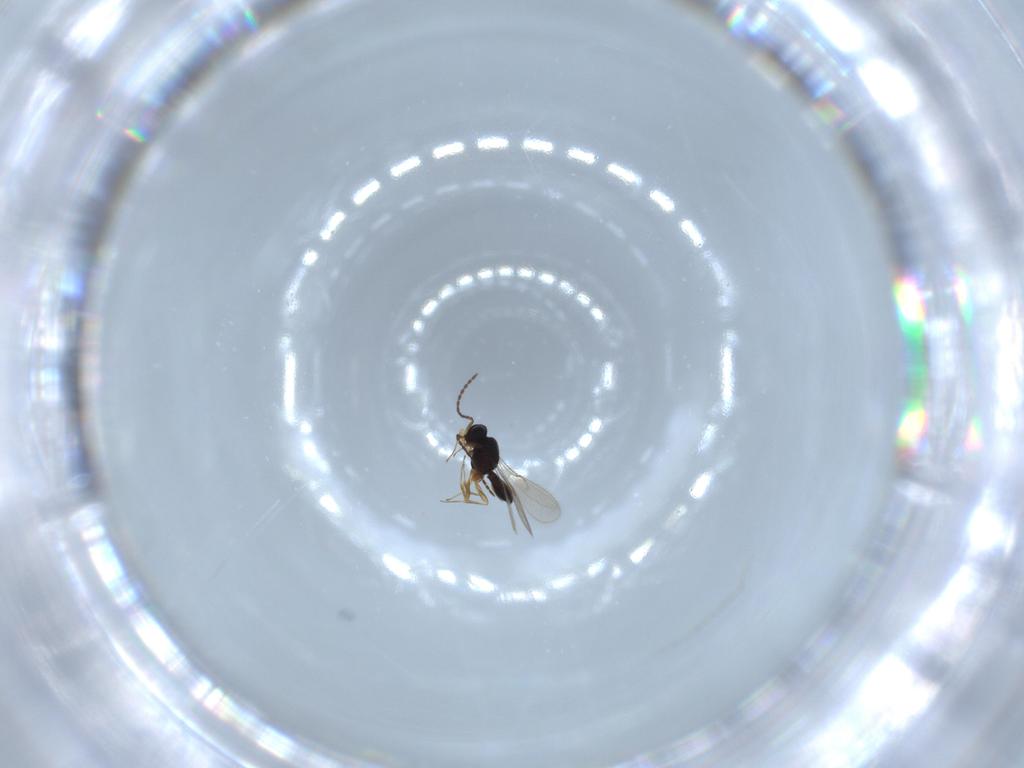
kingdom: Animalia
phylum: Arthropoda
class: Insecta
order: Hymenoptera
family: Scelionidae
